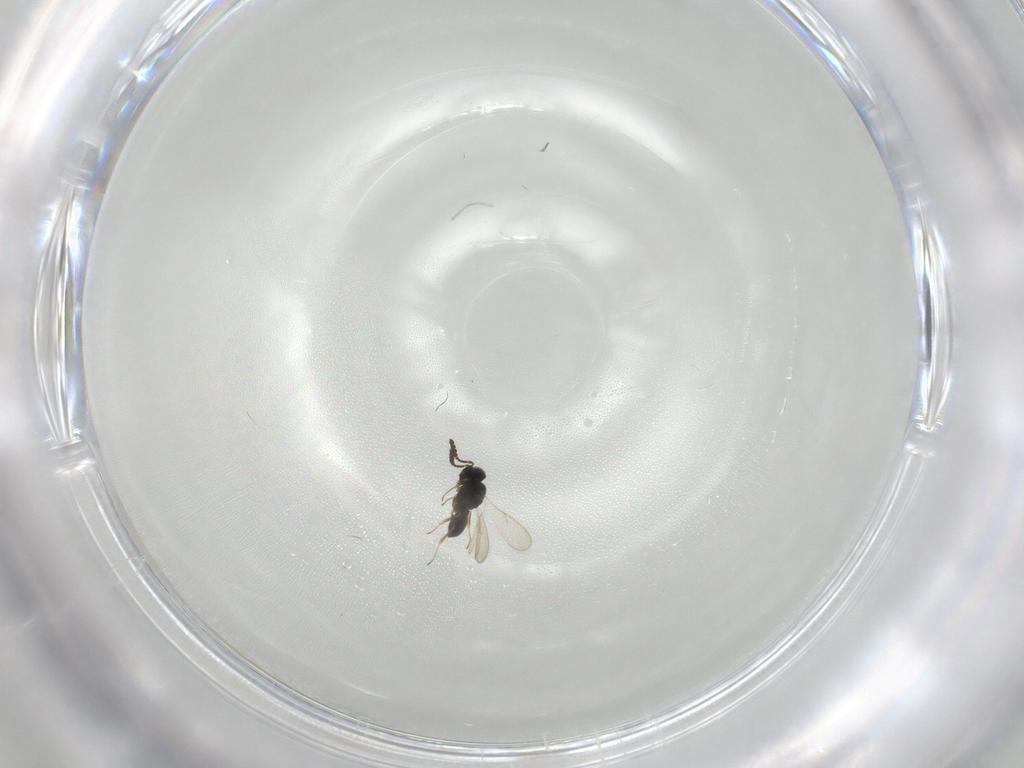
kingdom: Animalia
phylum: Arthropoda
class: Insecta
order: Hymenoptera
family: Scelionidae
